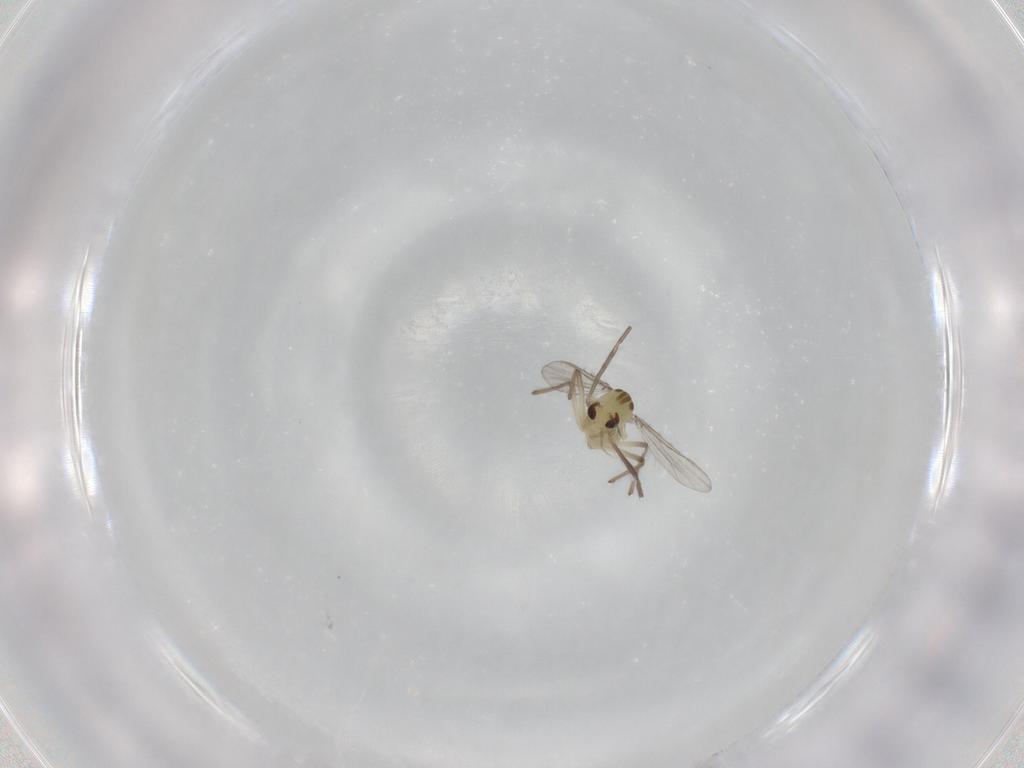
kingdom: Animalia
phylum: Arthropoda
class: Insecta
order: Diptera
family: Chironomidae
